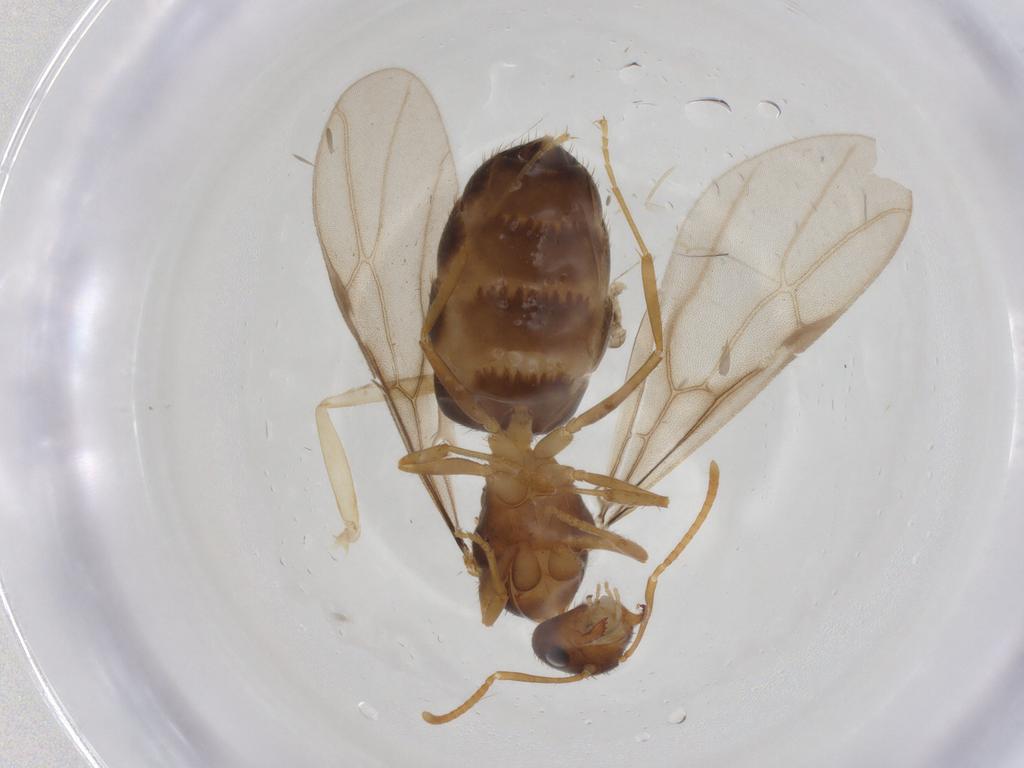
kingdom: Animalia
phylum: Arthropoda
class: Insecta
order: Hymenoptera
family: Formicidae
